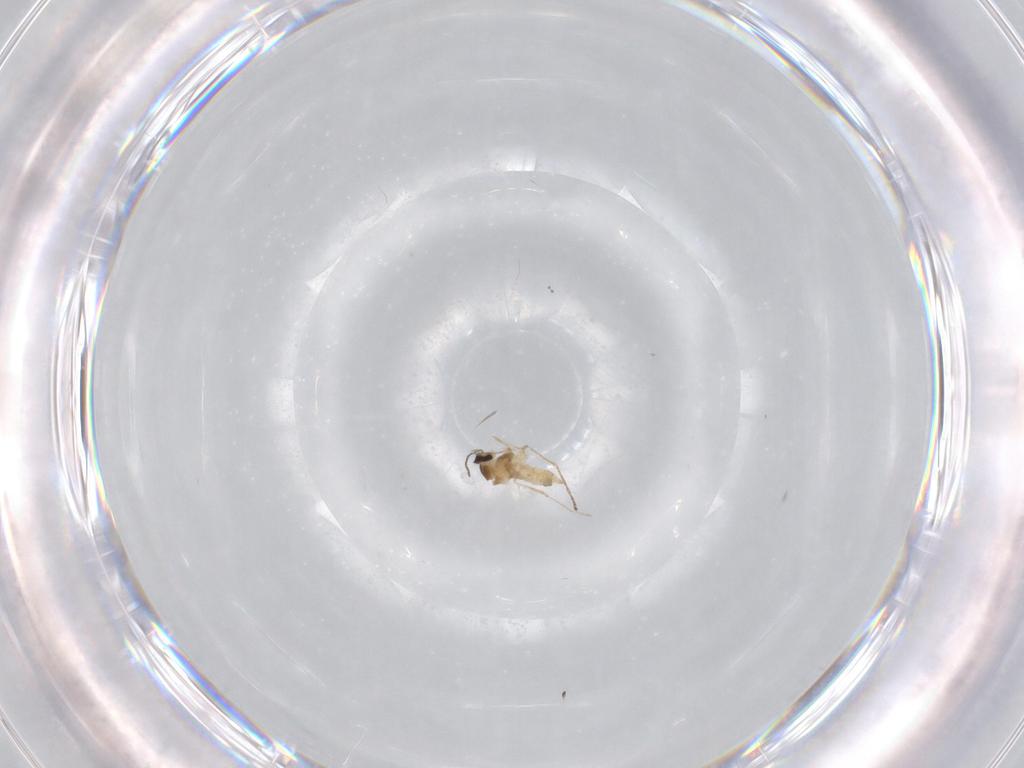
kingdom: Animalia
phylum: Arthropoda
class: Insecta
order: Diptera
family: Cecidomyiidae
